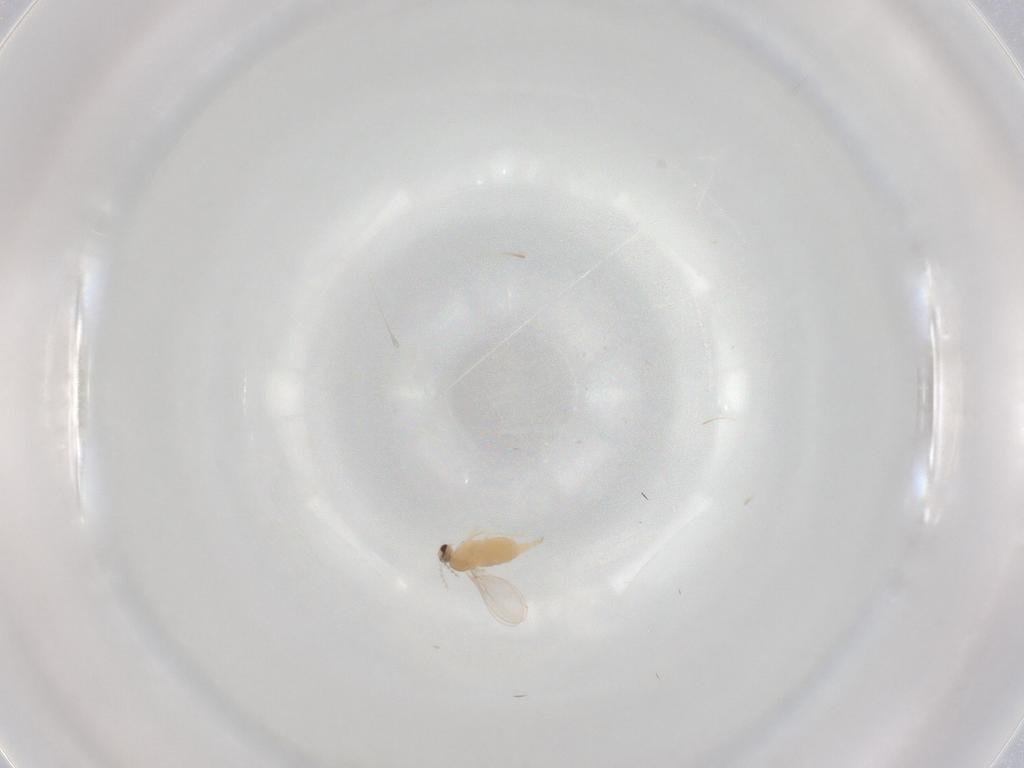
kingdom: Animalia
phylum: Arthropoda
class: Insecta
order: Diptera
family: Cecidomyiidae
